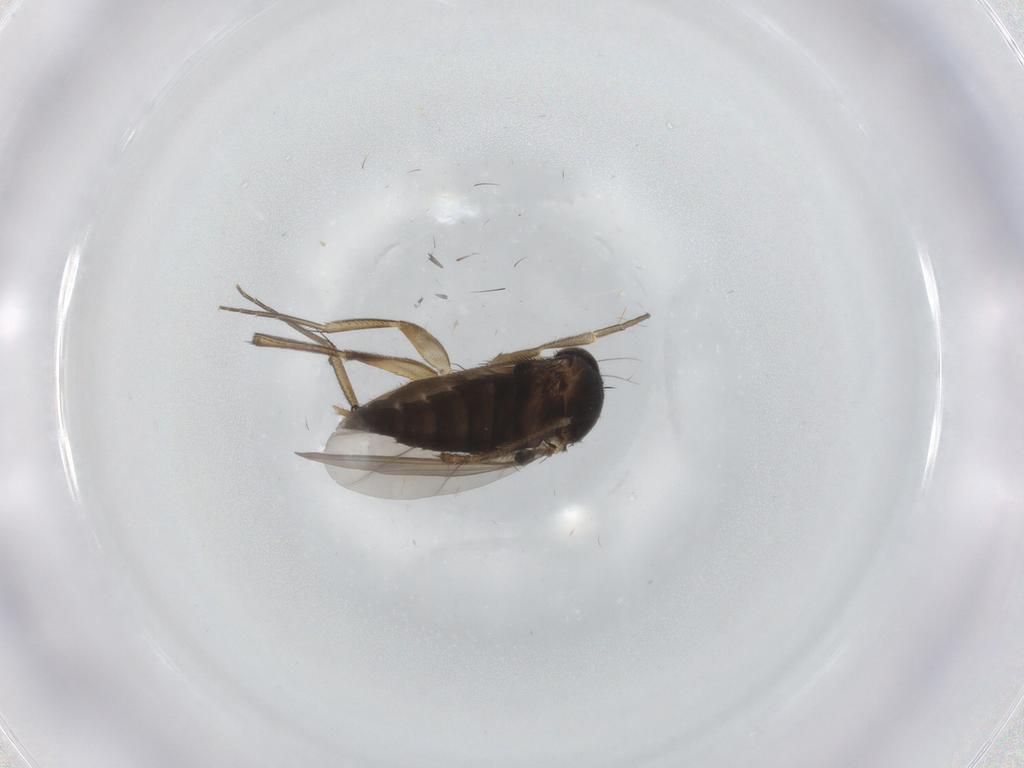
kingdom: Animalia
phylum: Arthropoda
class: Insecta
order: Diptera
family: Phoridae
